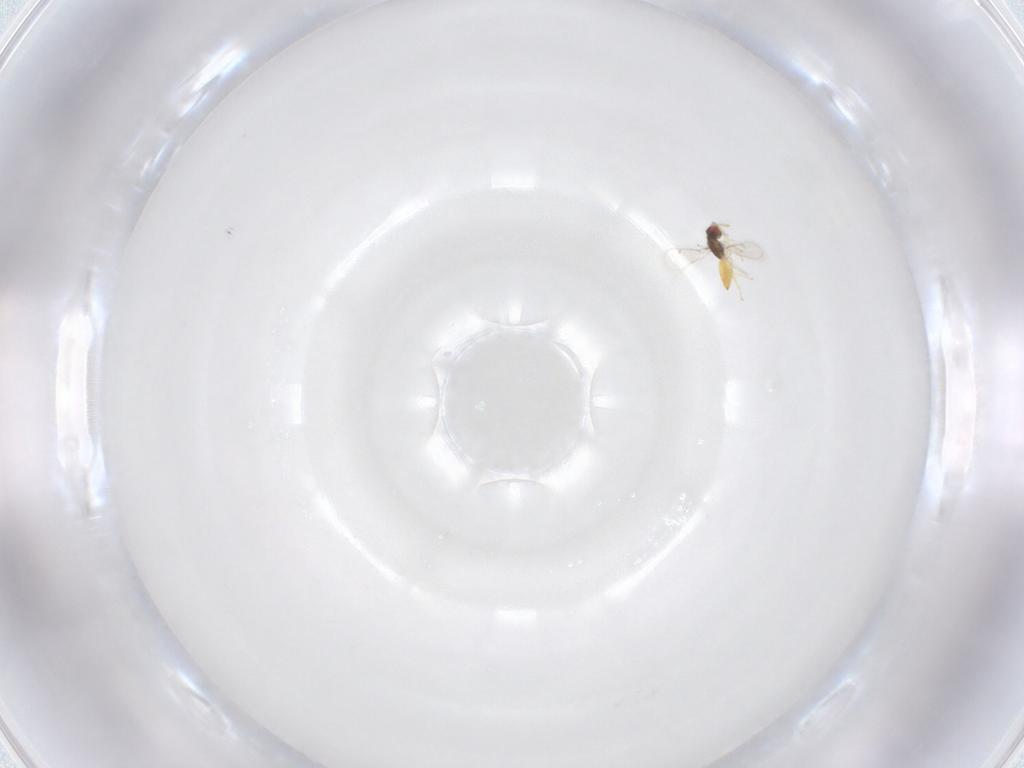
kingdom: Animalia
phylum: Arthropoda
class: Insecta
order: Hymenoptera
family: Eulophidae
